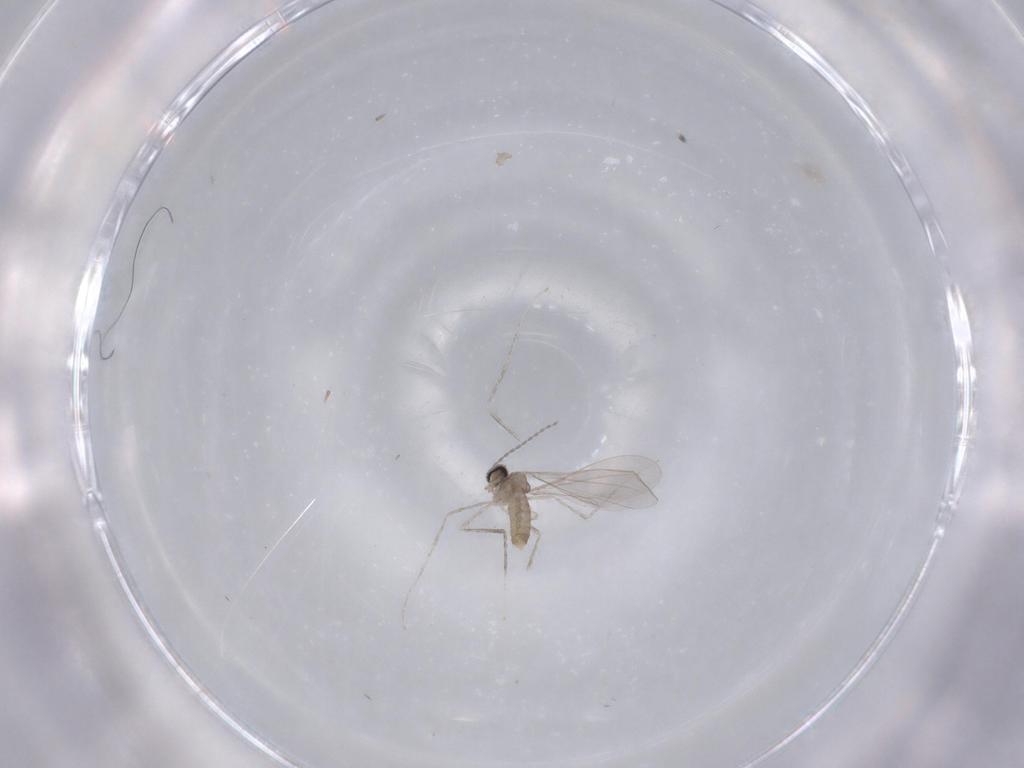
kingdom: Animalia
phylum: Arthropoda
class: Insecta
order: Diptera
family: Cecidomyiidae
